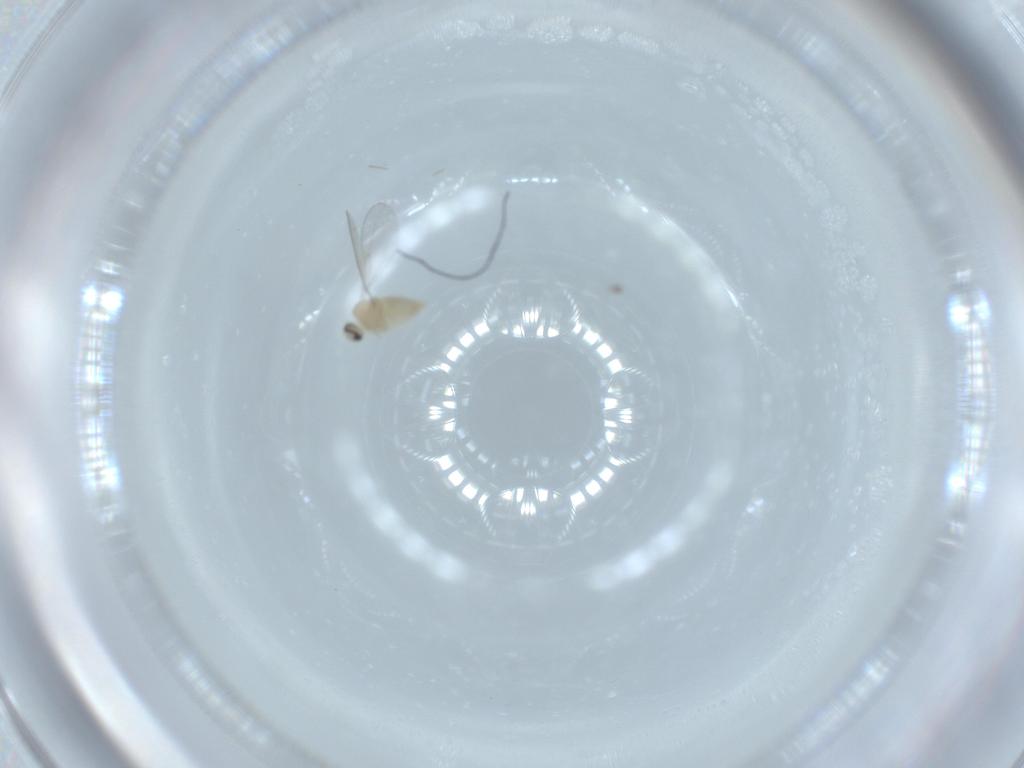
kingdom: Animalia
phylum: Arthropoda
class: Insecta
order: Diptera
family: Cecidomyiidae
